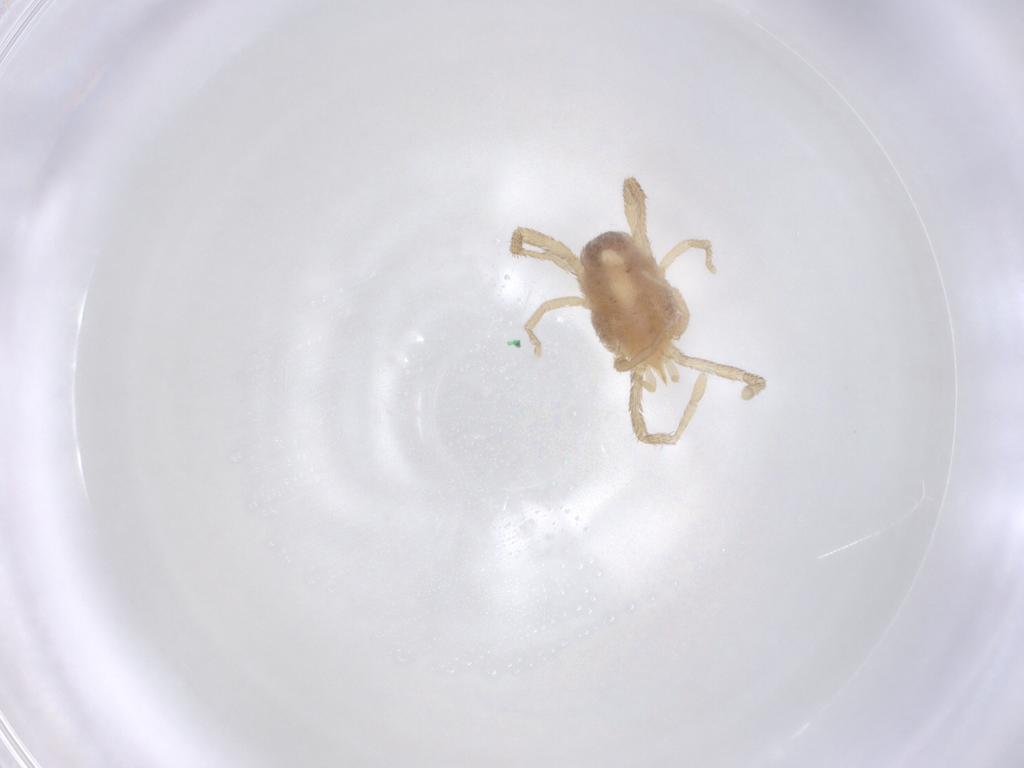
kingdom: Animalia
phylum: Arthropoda
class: Arachnida
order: Trombidiformes
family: Erythraeidae
